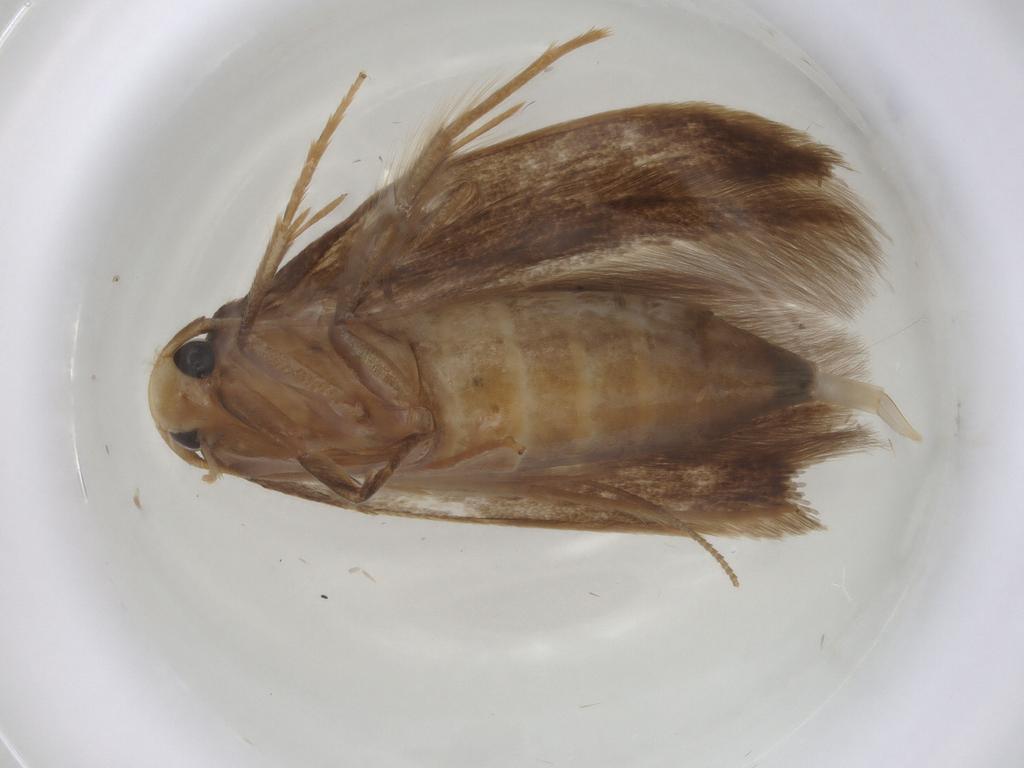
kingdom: Animalia
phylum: Arthropoda
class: Insecta
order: Lepidoptera
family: Tineidae
